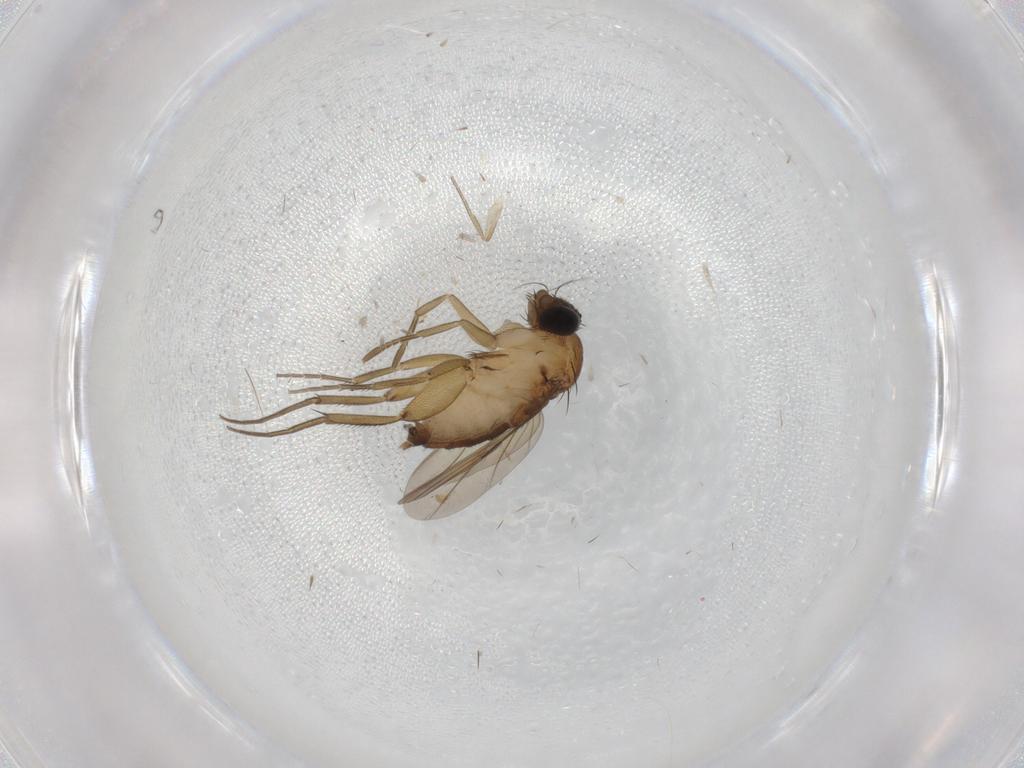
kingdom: Animalia
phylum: Arthropoda
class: Insecta
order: Diptera
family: Phoridae
